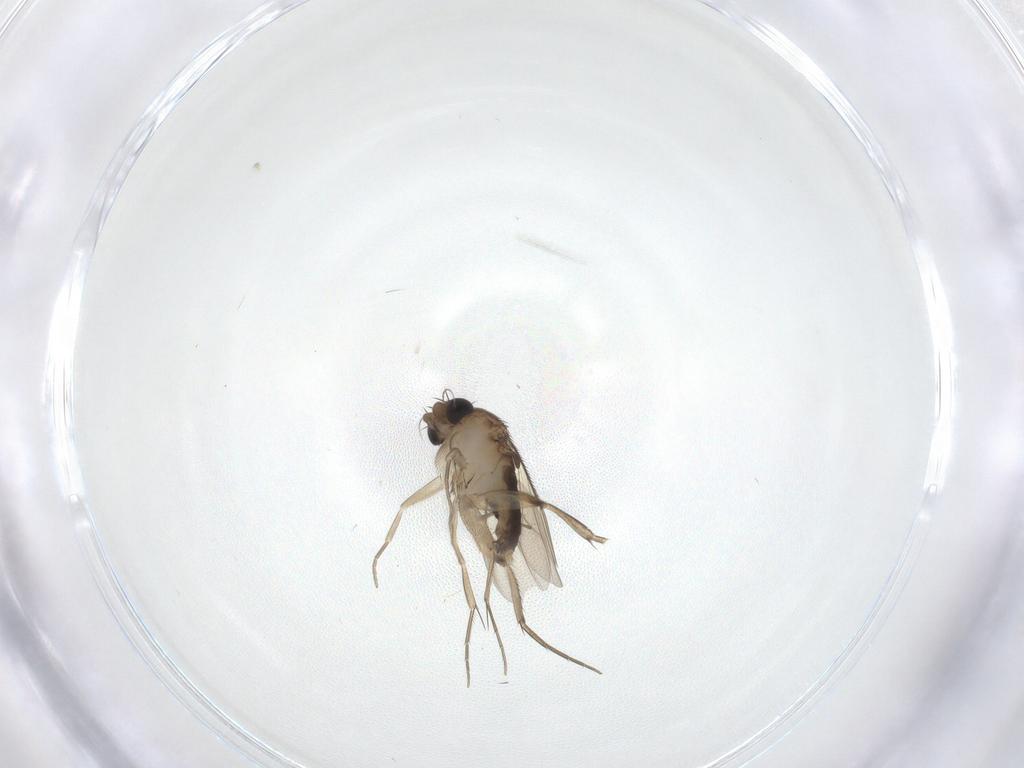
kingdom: Animalia
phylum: Arthropoda
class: Insecta
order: Diptera
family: Phoridae
